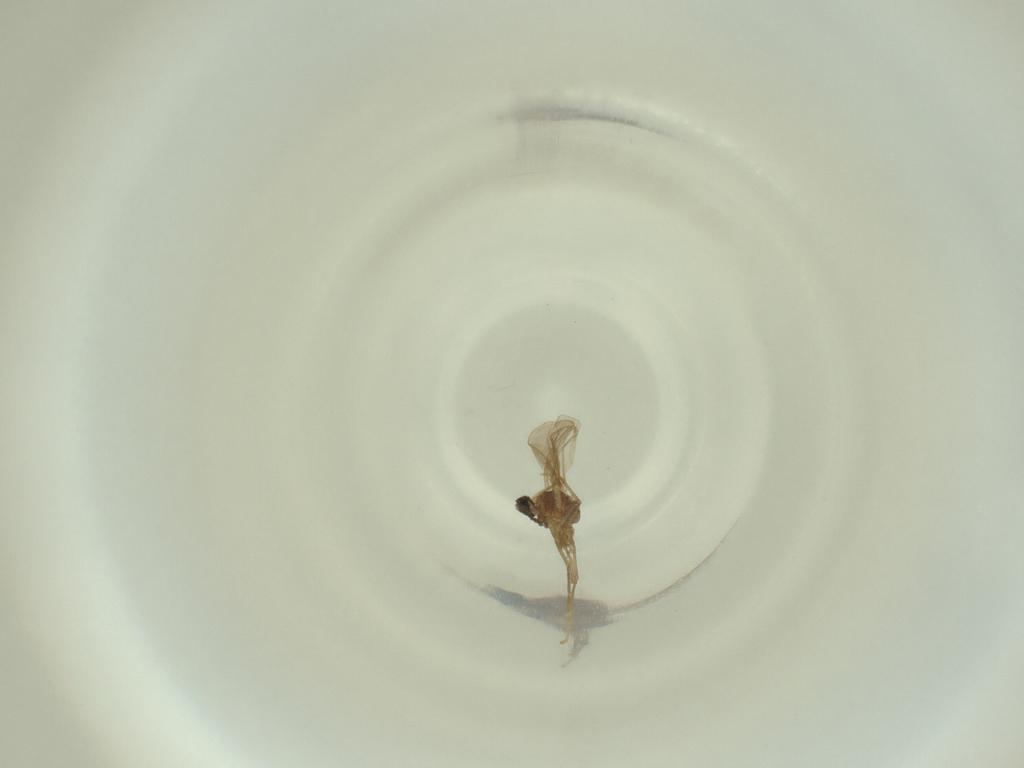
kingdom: Animalia
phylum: Arthropoda
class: Insecta
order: Diptera
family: Cecidomyiidae
